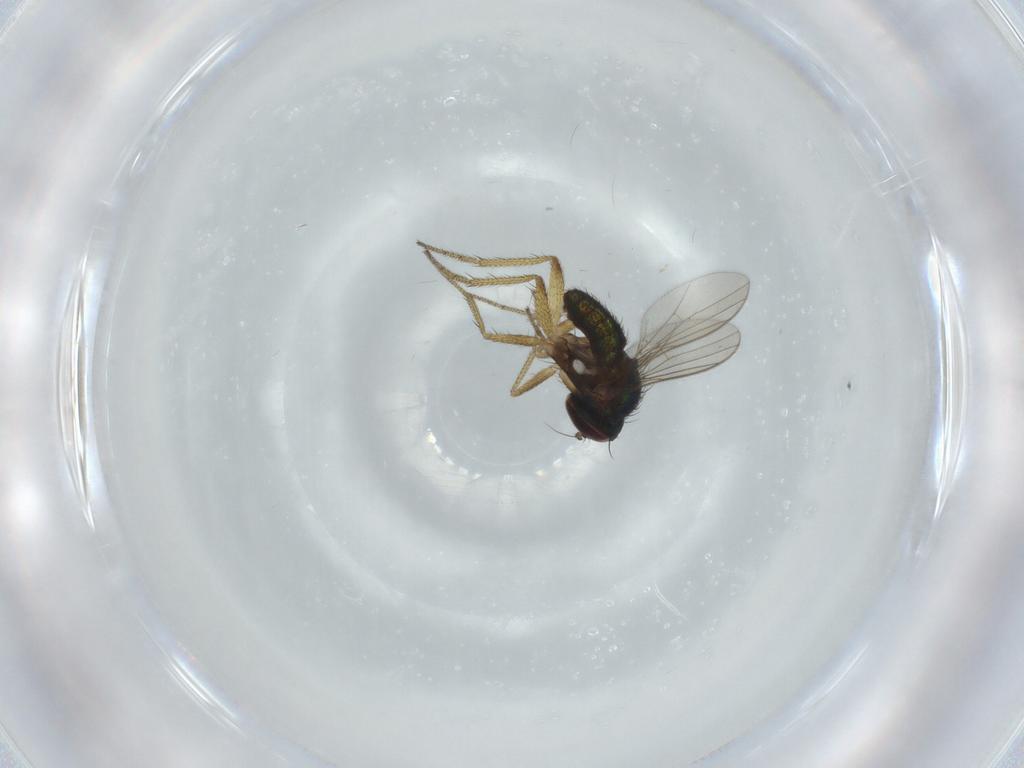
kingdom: Animalia
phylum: Arthropoda
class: Insecta
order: Diptera
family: Dolichopodidae
